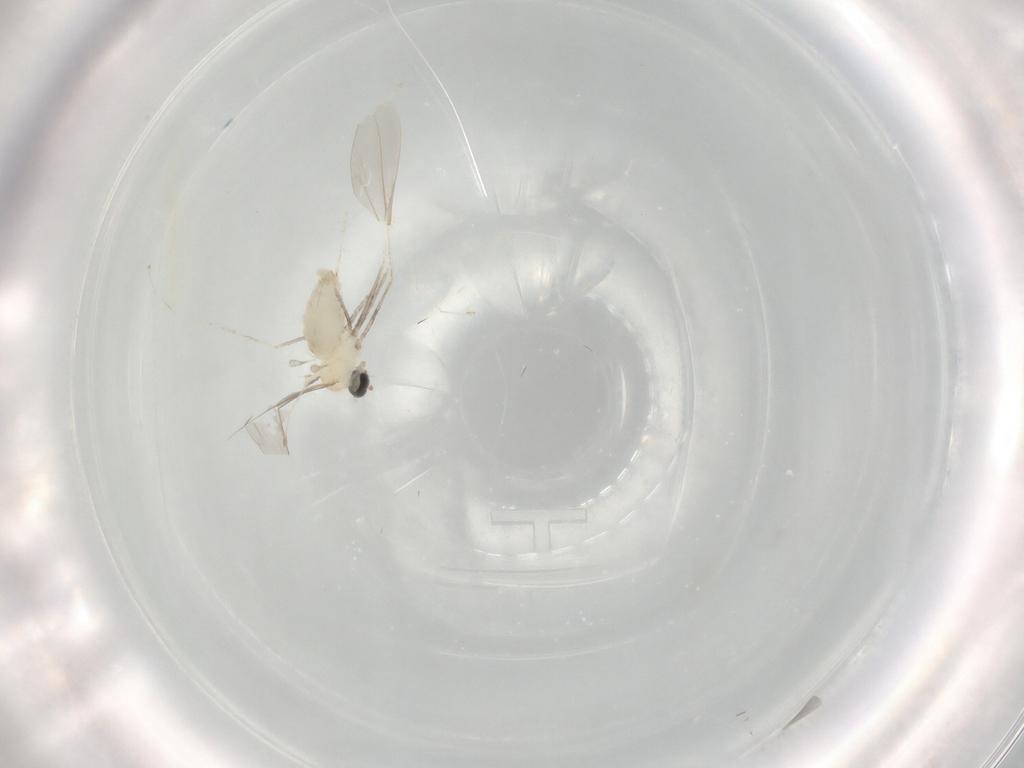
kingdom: Animalia
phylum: Arthropoda
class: Insecta
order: Diptera
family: Cecidomyiidae
